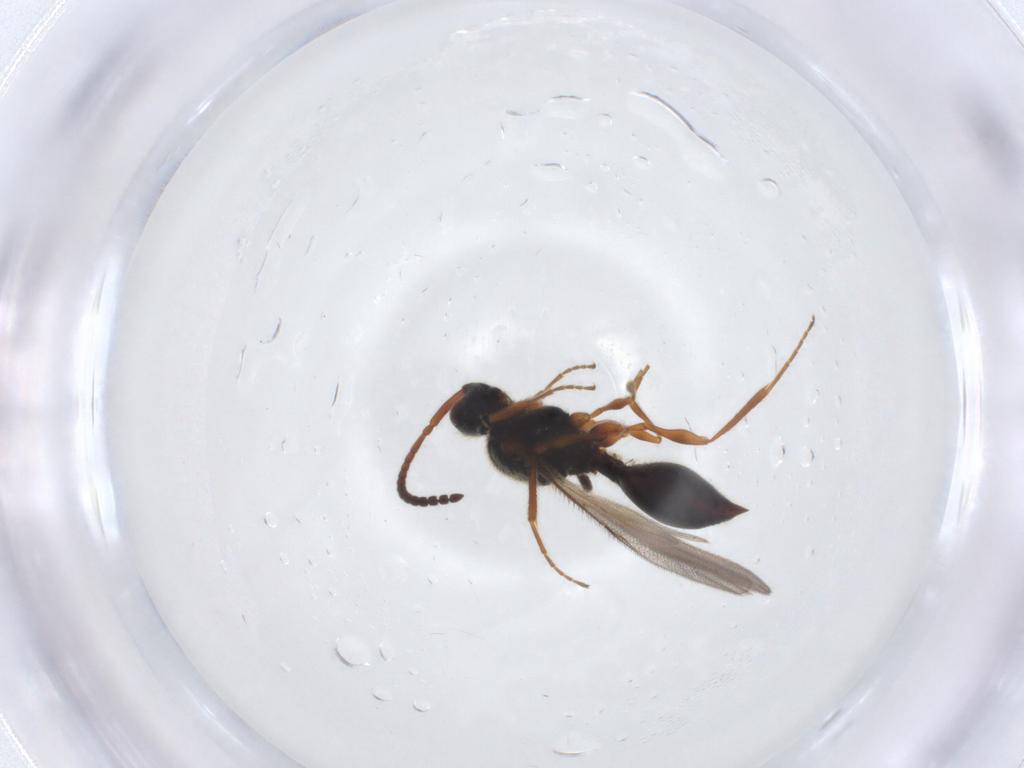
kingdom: Animalia
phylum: Arthropoda
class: Insecta
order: Hymenoptera
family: Diapriidae
